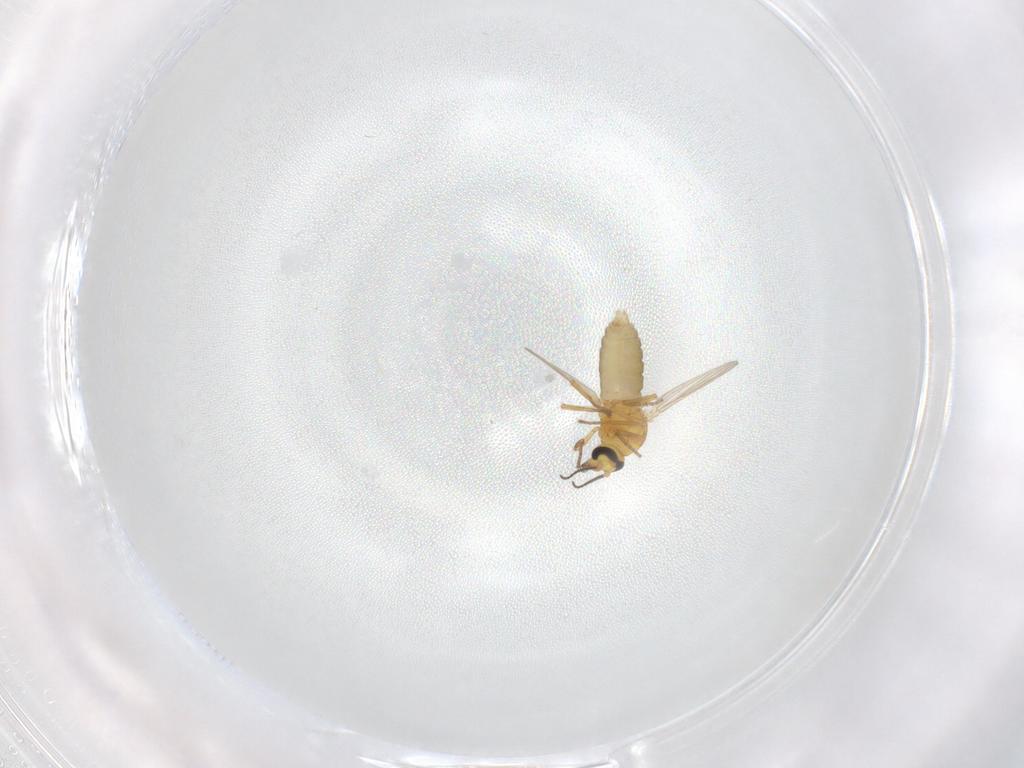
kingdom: Animalia
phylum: Arthropoda
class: Insecta
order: Diptera
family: Ceratopogonidae
